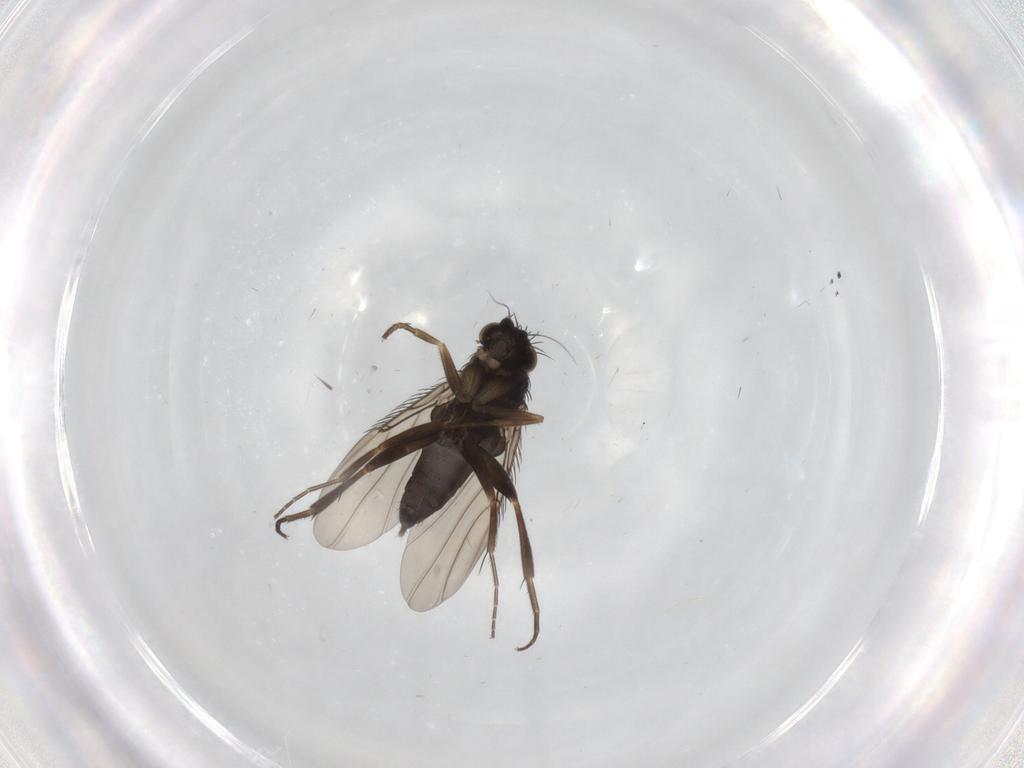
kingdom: Animalia
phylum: Arthropoda
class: Insecta
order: Diptera
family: Phoridae
